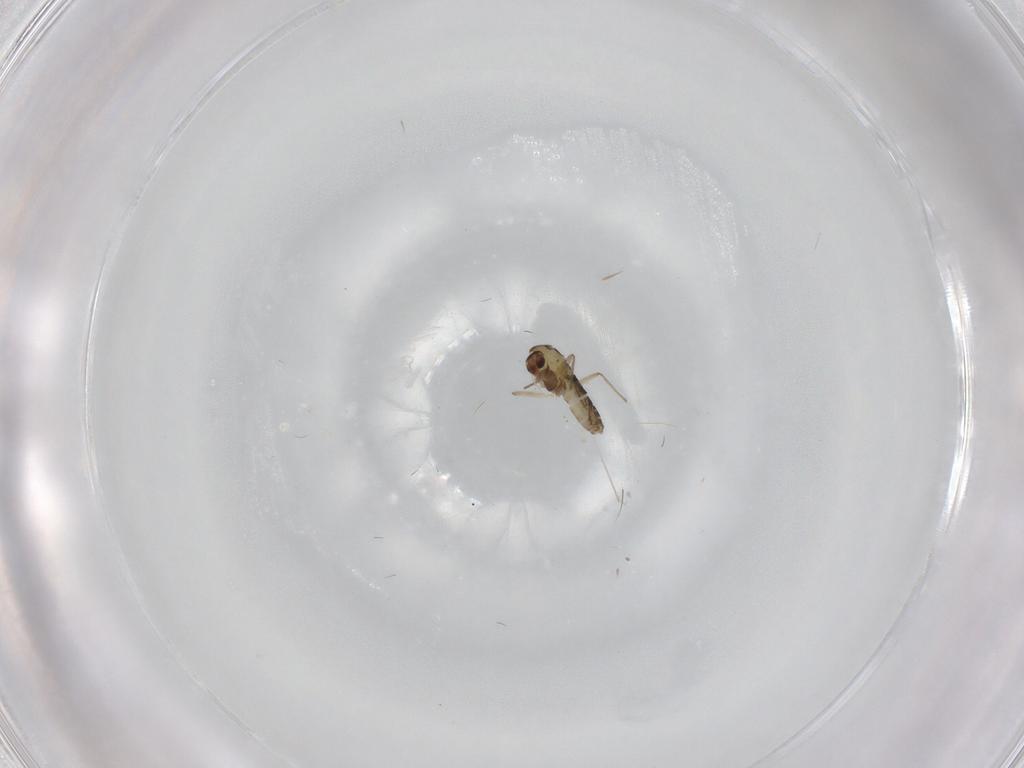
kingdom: Animalia
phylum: Arthropoda
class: Insecta
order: Diptera
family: Chironomidae
